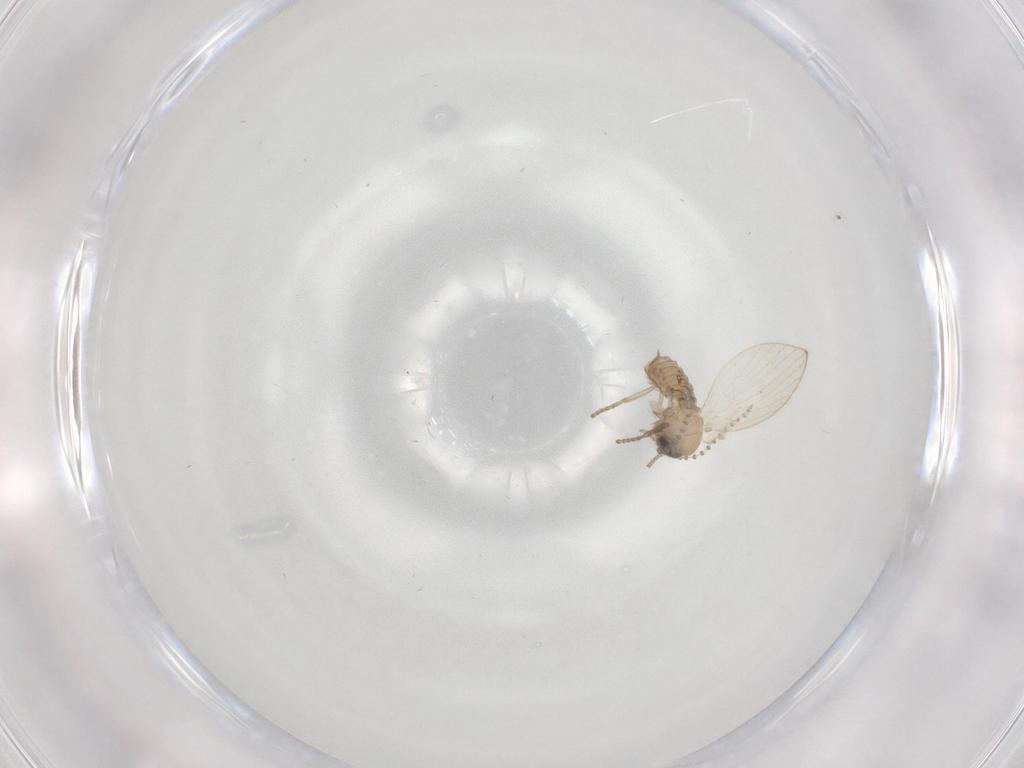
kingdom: Animalia
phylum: Arthropoda
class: Insecta
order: Diptera
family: Psychodidae
